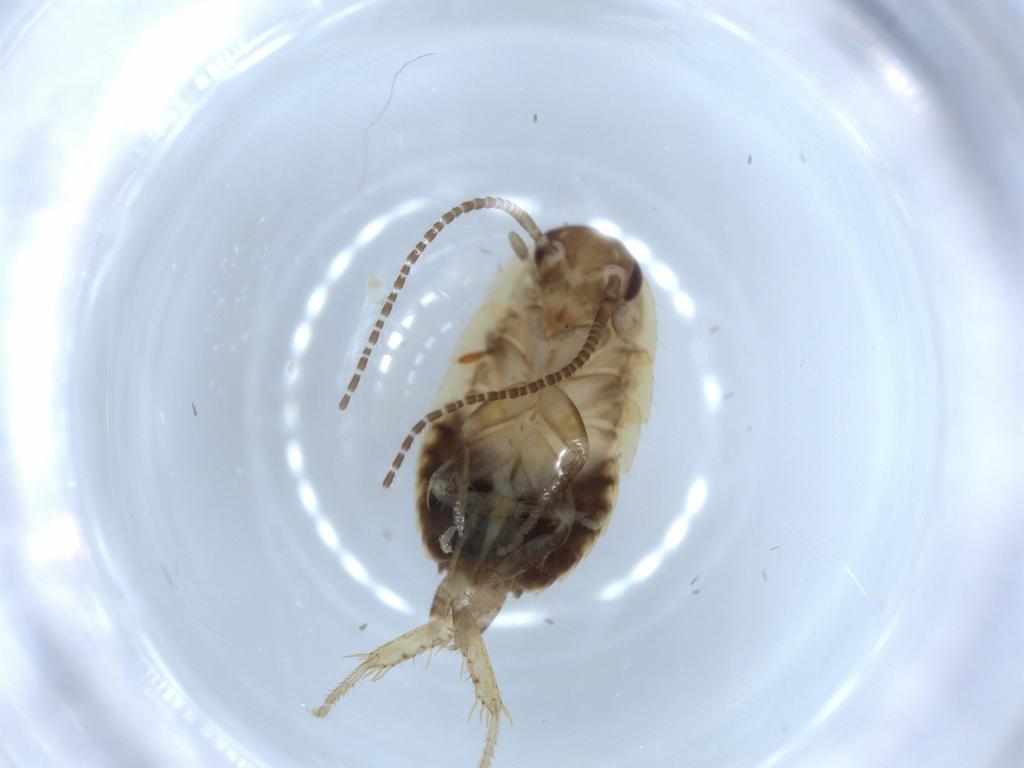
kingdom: Animalia
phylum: Arthropoda
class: Insecta
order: Blattodea
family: Ectobiidae
